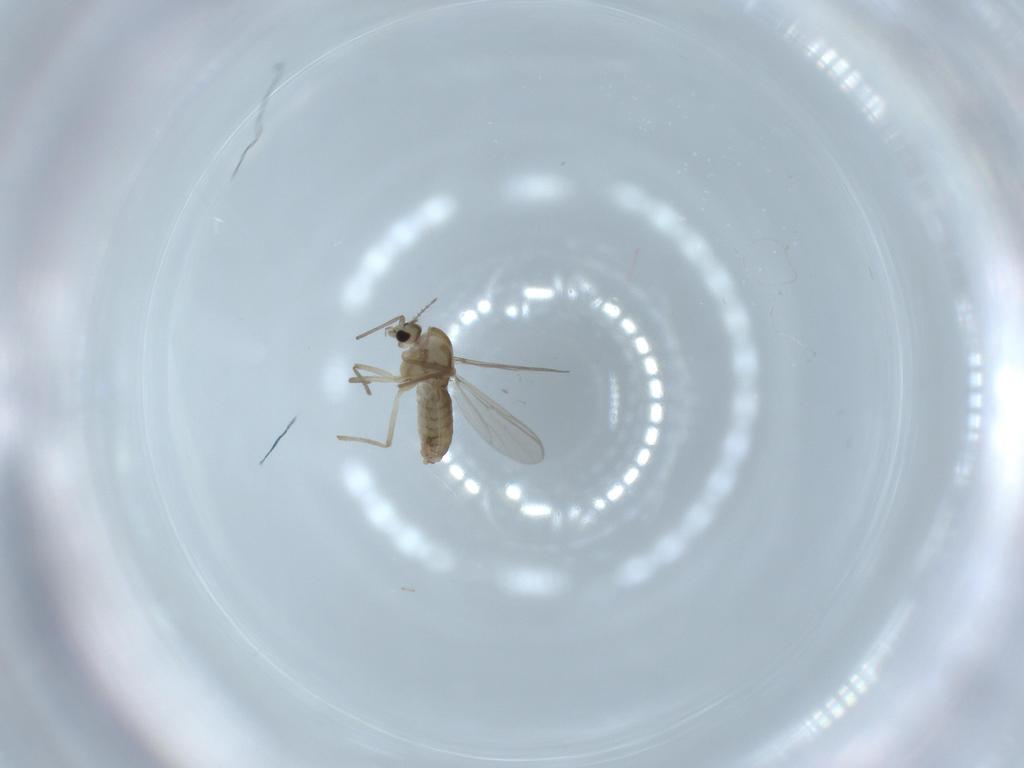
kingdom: Animalia
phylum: Arthropoda
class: Insecta
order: Diptera
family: Chironomidae
